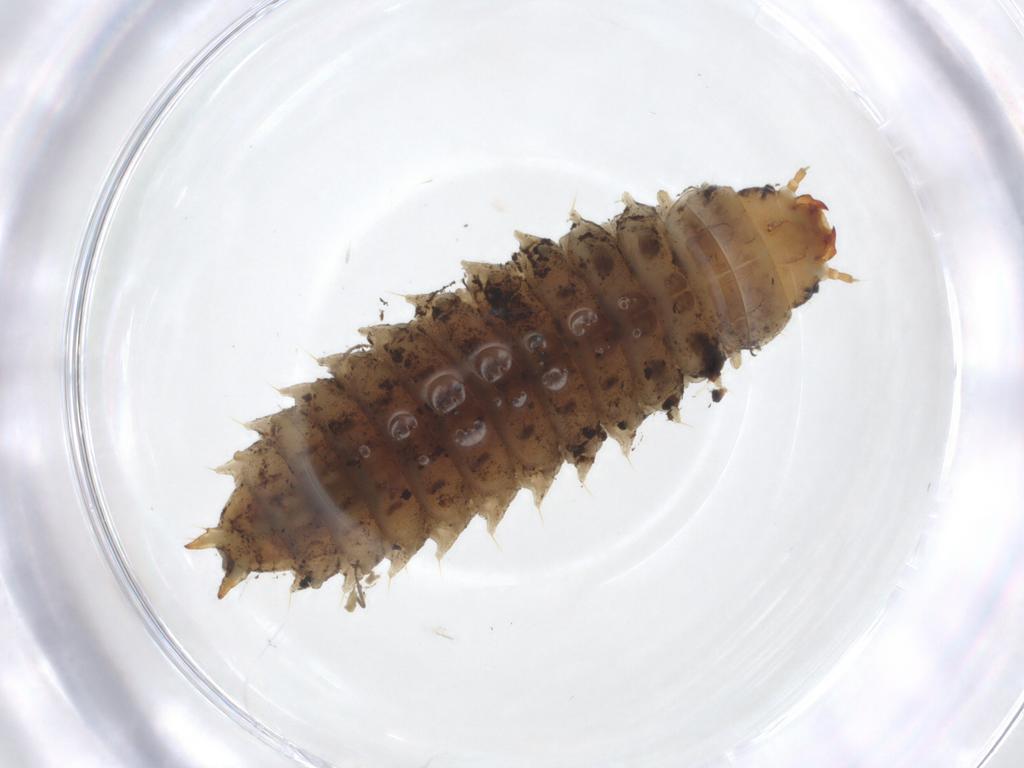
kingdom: Animalia
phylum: Arthropoda
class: Insecta
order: Coleoptera
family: Nitidulidae
